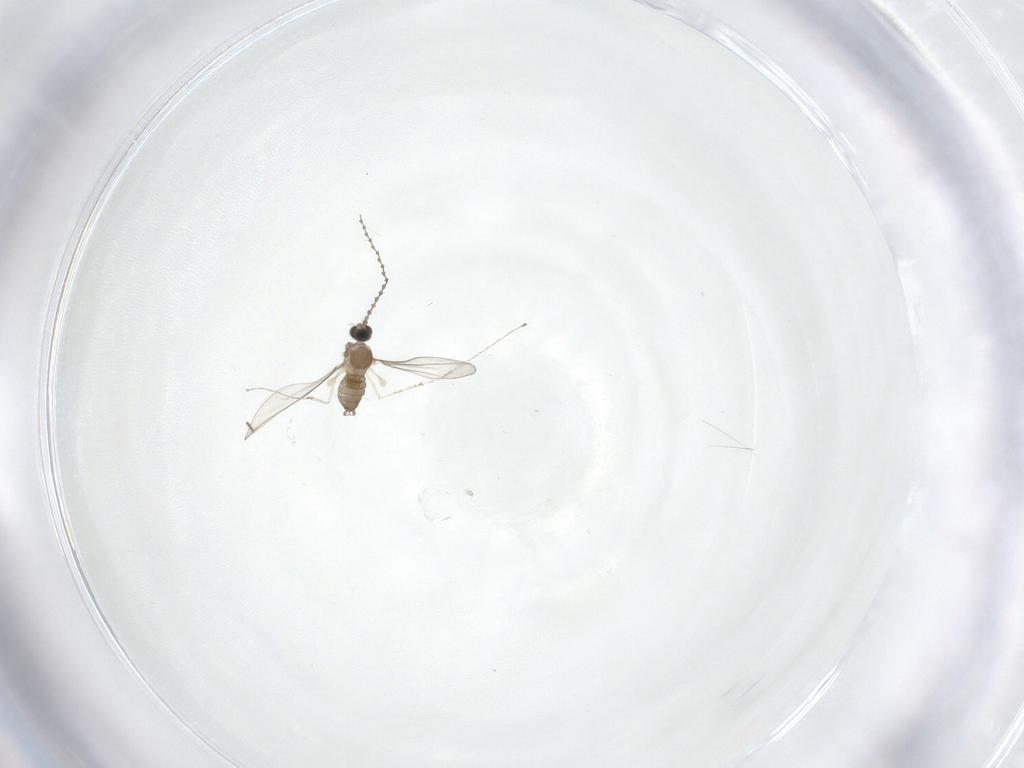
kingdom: Animalia
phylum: Arthropoda
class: Insecta
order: Diptera
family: Cecidomyiidae
